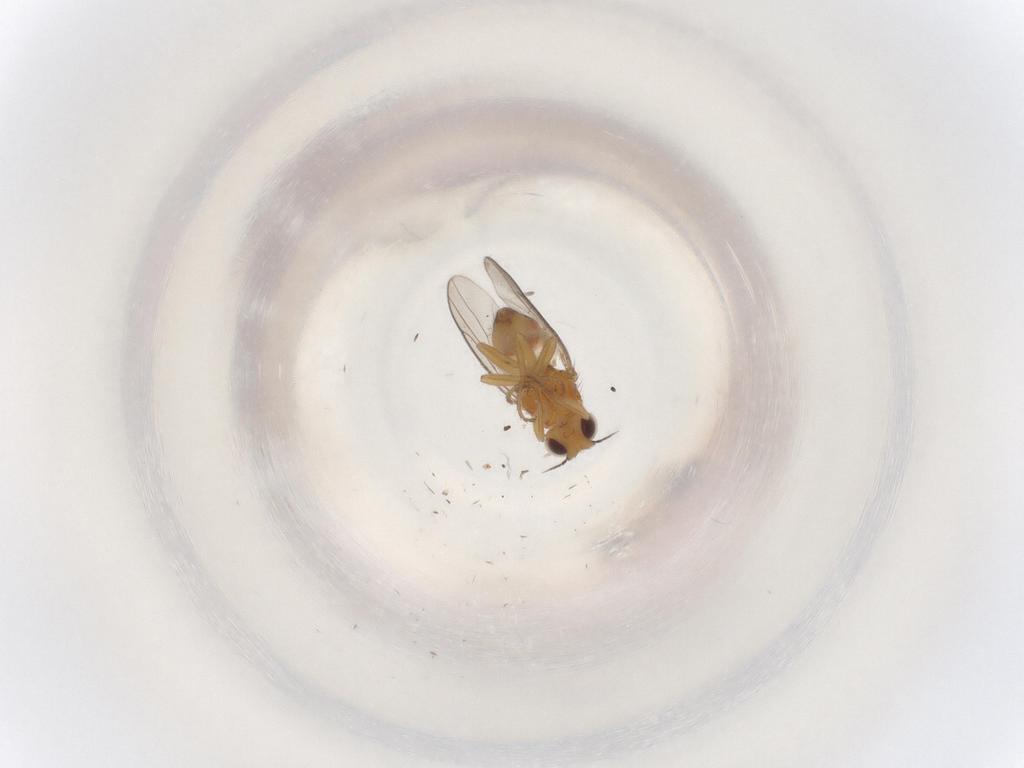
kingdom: Animalia
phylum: Arthropoda
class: Insecta
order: Diptera
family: Chloropidae
